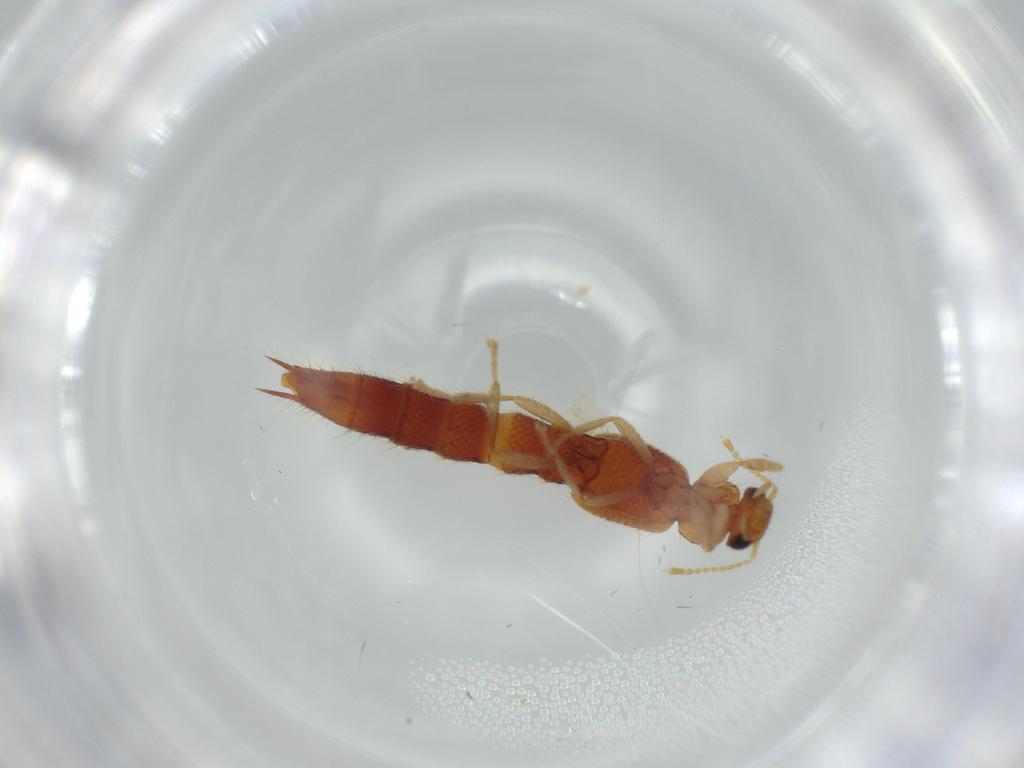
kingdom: Animalia
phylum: Arthropoda
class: Insecta
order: Coleoptera
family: Staphylinidae
